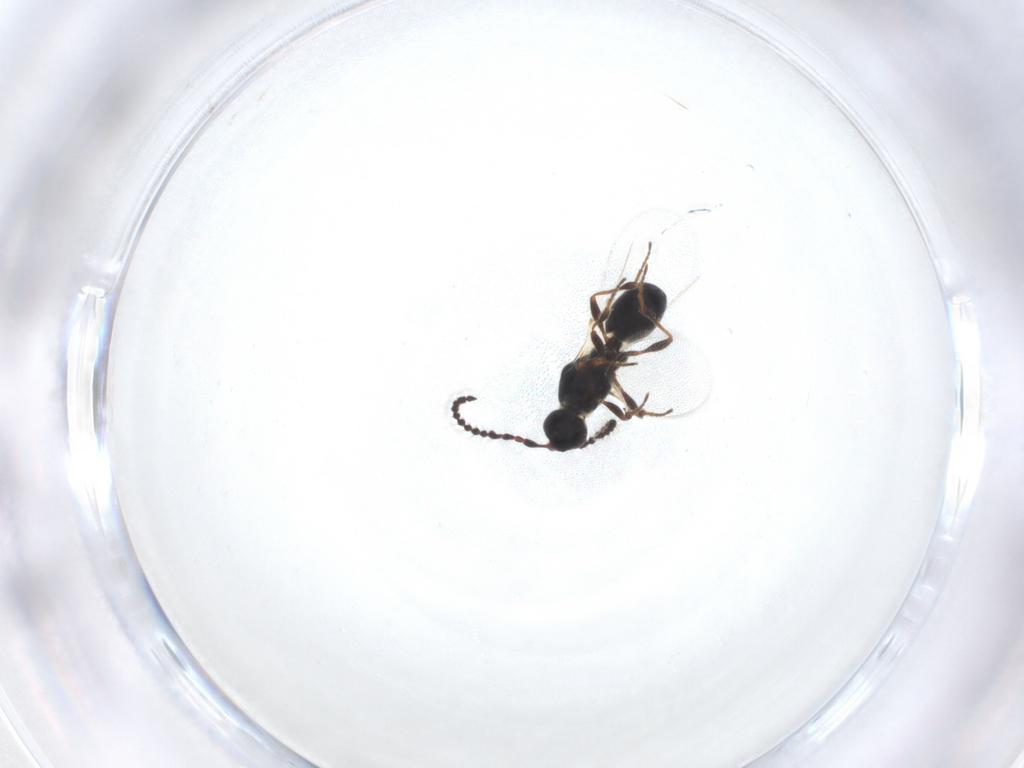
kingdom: Animalia
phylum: Arthropoda
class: Insecta
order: Hymenoptera
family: Diapriidae
